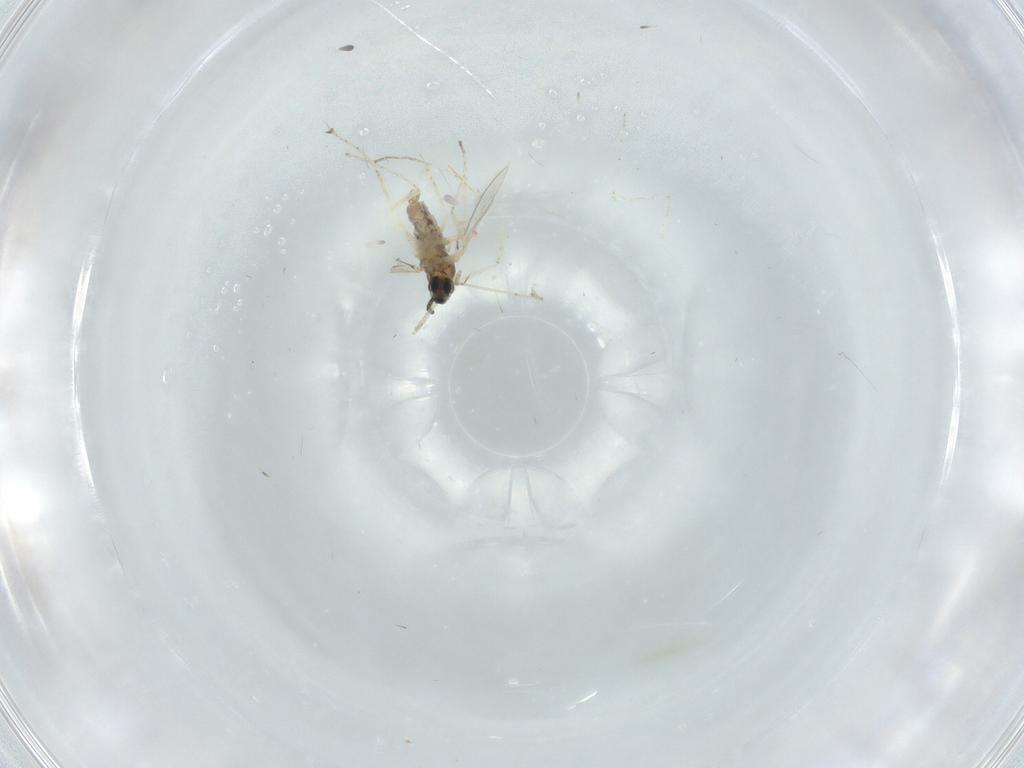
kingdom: Animalia
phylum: Arthropoda
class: Insecta
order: Diptera
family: Cecidomyiidae
